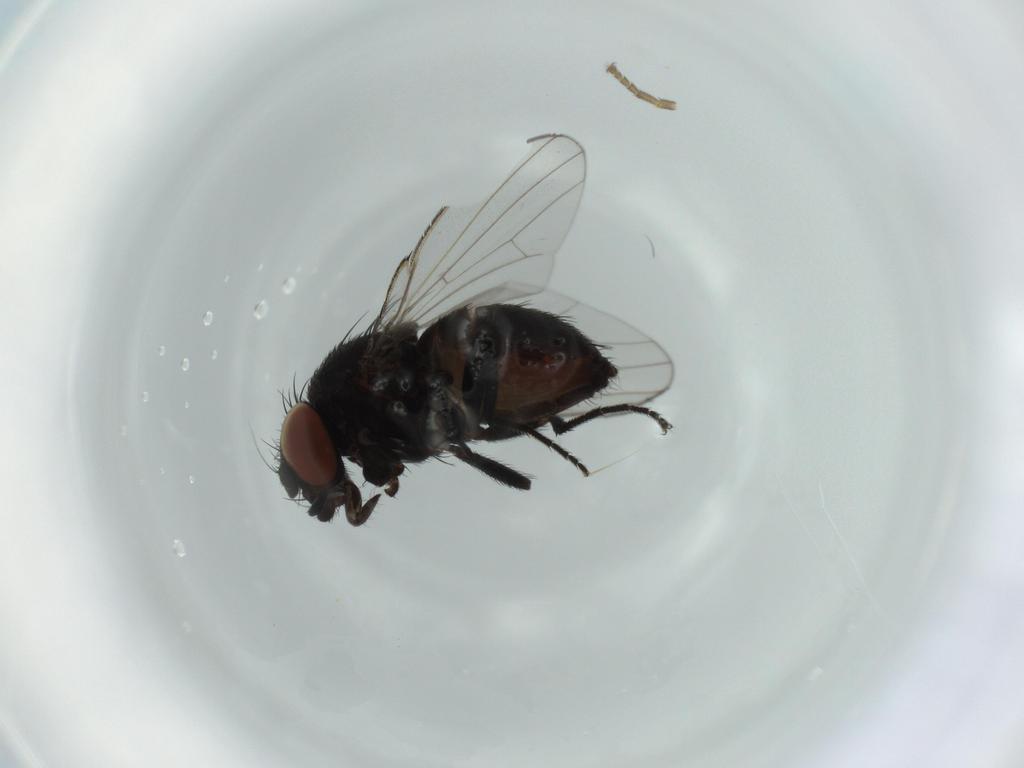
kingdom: Animalia
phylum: Arthropoda
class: Insecta
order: Diptera
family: Milichiidae
